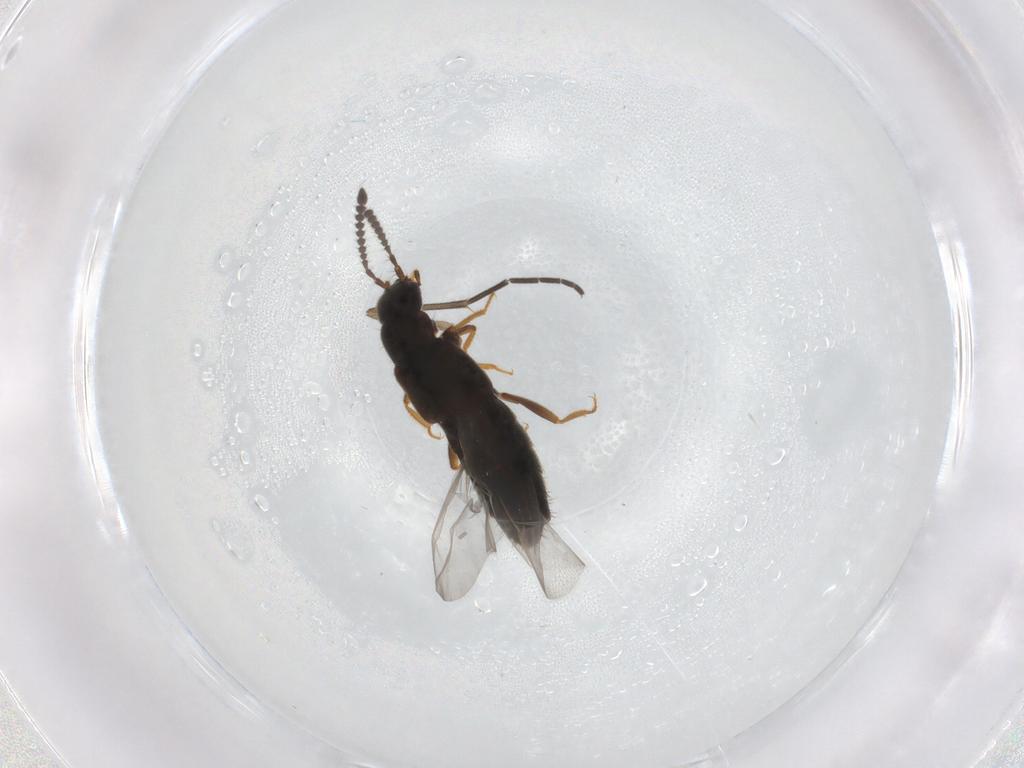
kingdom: Animalia
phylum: Arthropoda
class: Insecta
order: Coleoptera
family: Staphylinidae
